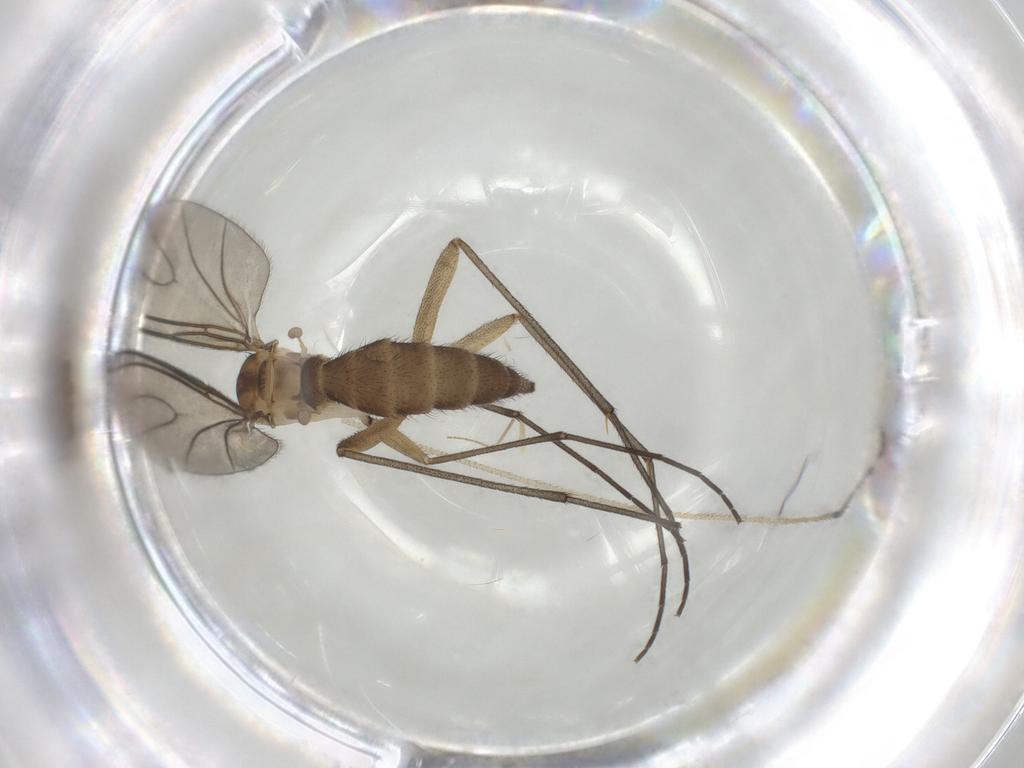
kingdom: Animalia
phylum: Arthropoda
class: Insecta
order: Diptera
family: Sciaridae
